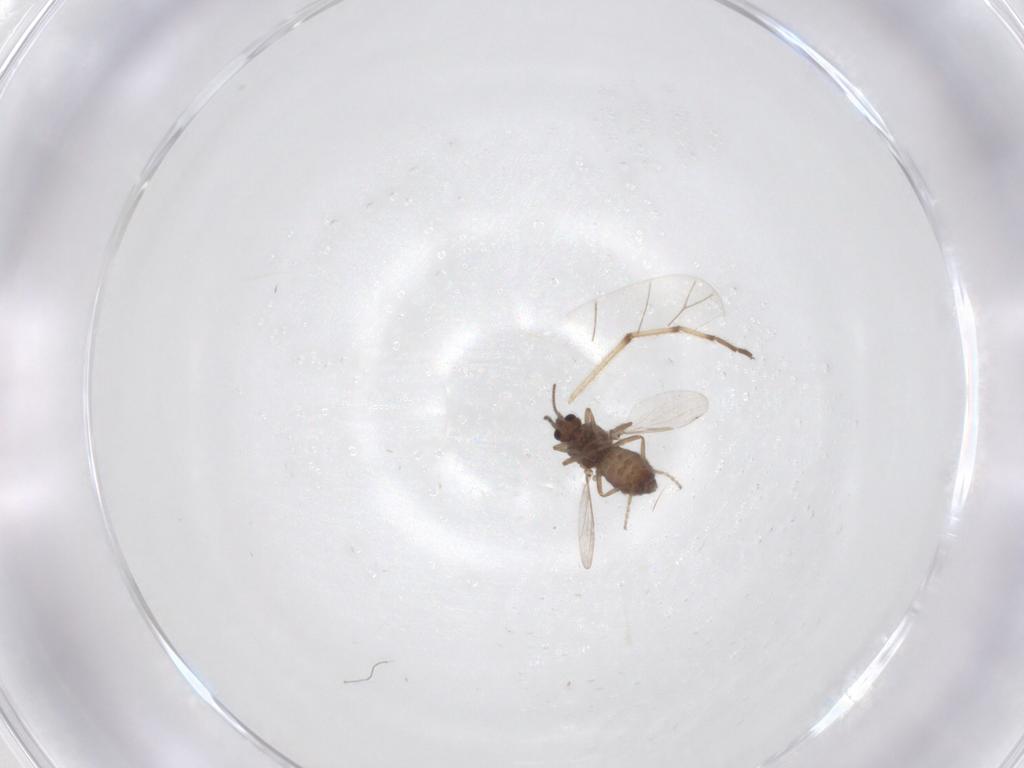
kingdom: Animalia
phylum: Arthropoda
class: Insecta
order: Diptera
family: Chironomidae
